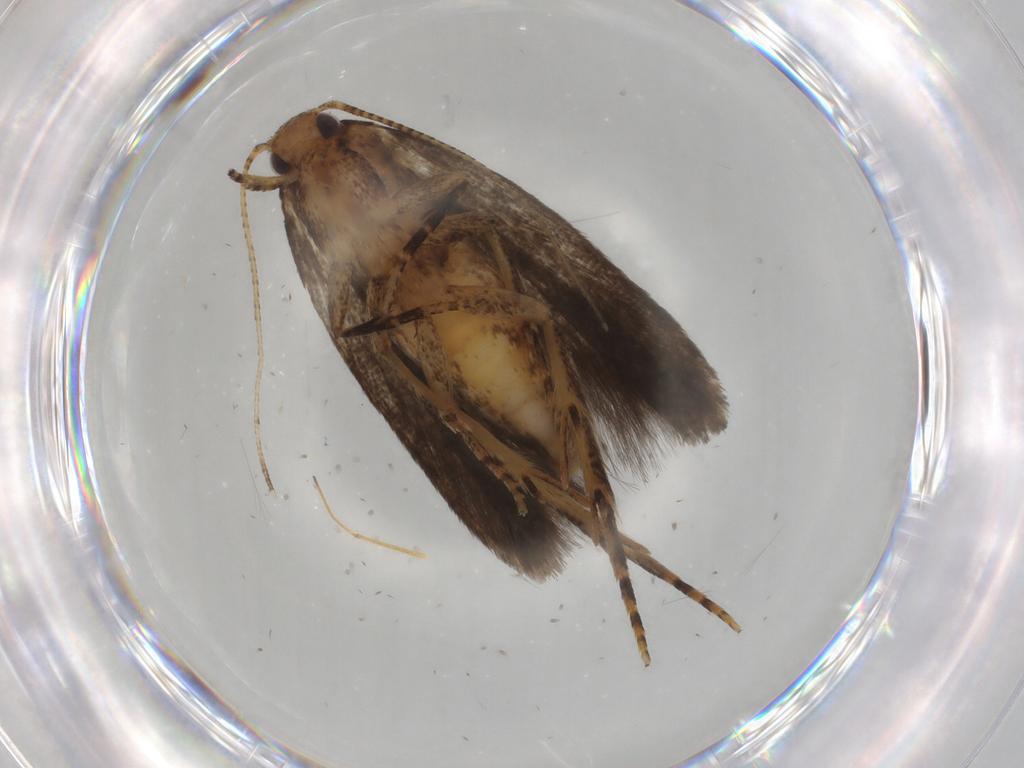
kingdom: Animalia
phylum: Arthropoda
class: Insecta
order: Lepidoptera
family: Gelechiidae
